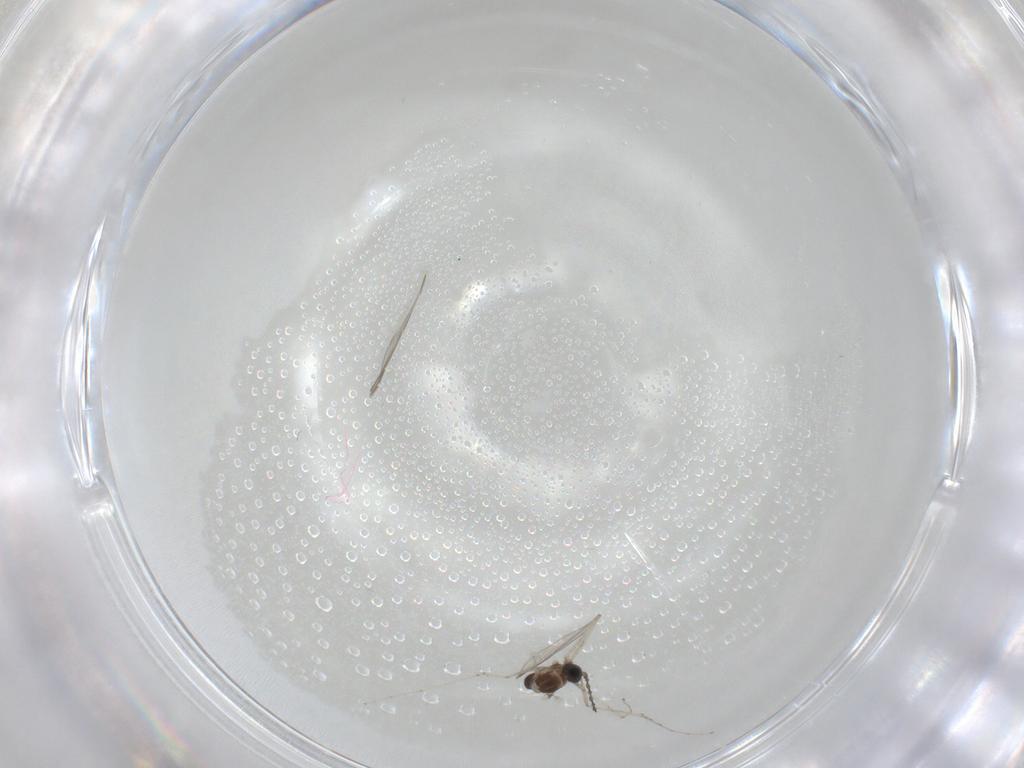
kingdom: Animalia
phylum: Arthropoda
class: Insecta
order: Diptera
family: Cecidomyiidae
